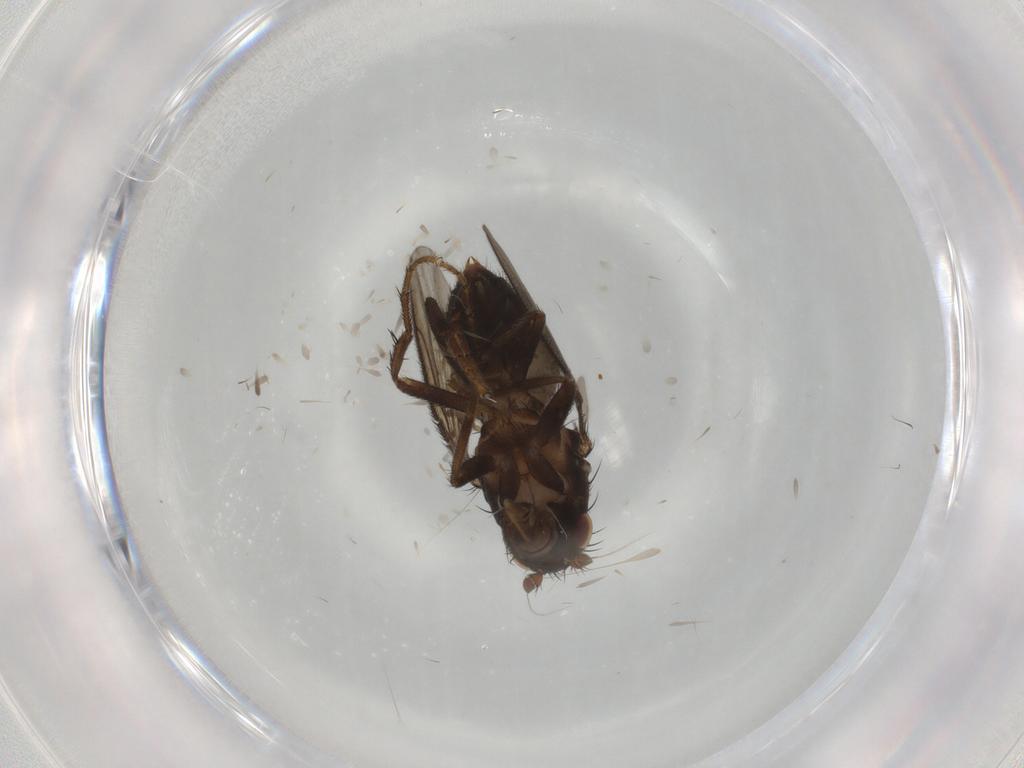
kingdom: Animalia
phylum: Arthropoda
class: Insecta
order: Diptera
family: Sphaeroceridae
